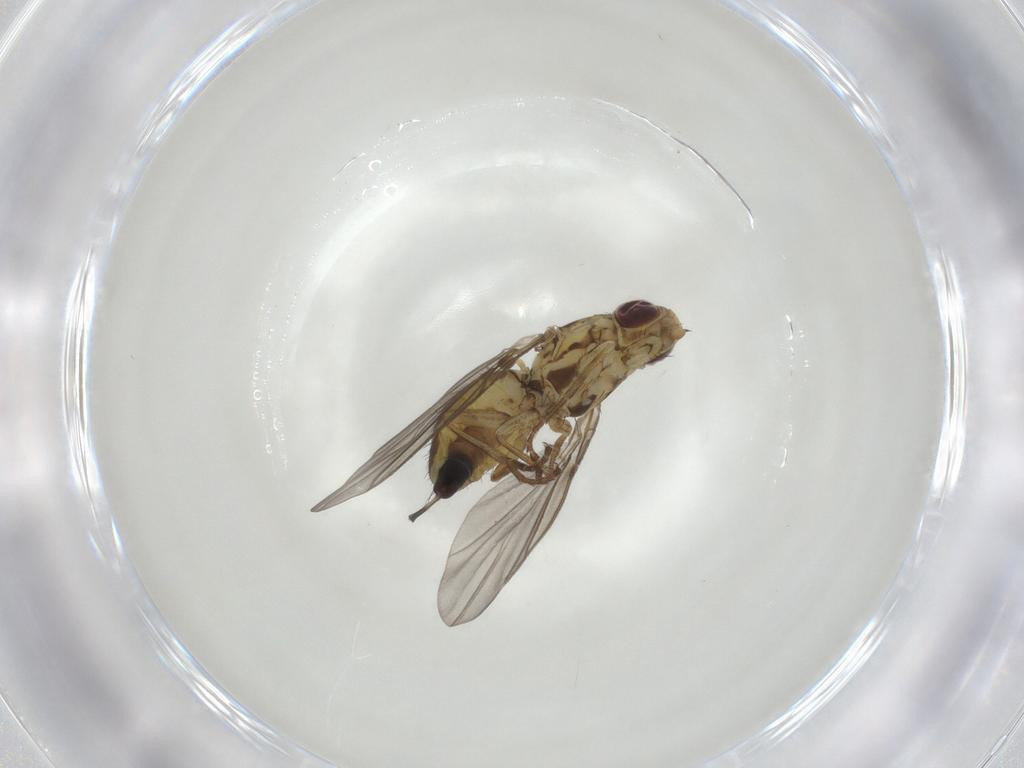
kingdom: Animalia
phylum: Arthropoda
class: Insecta
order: Diptera
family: Agromyzidae
